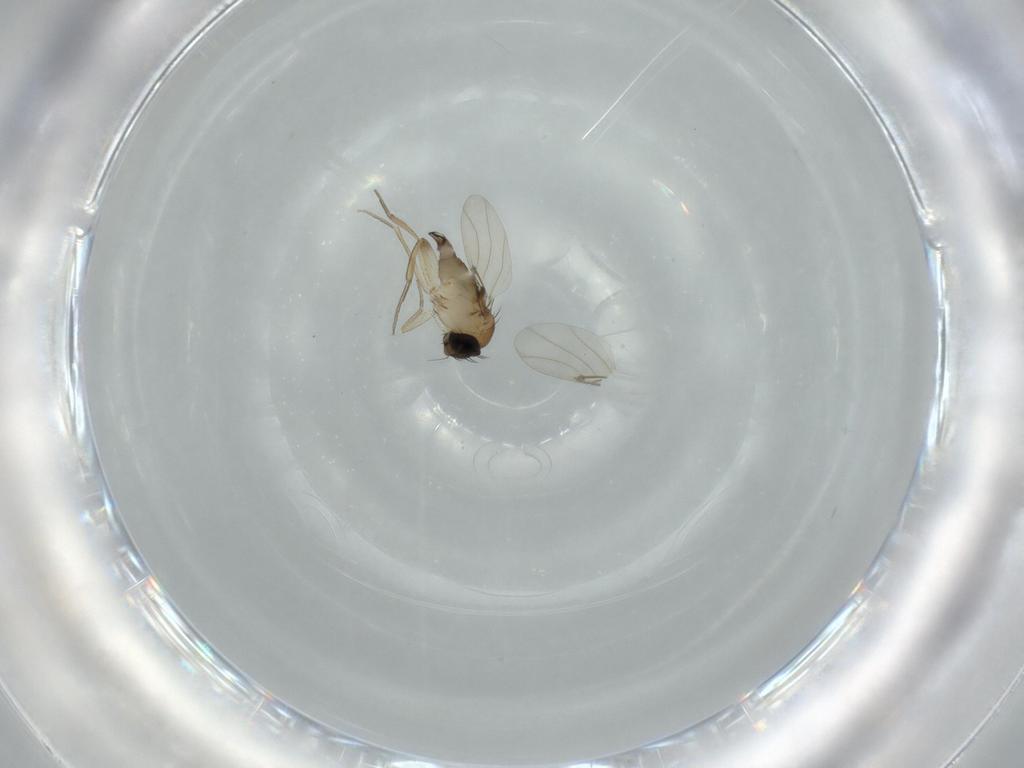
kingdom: Animalia
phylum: Arthropoda
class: Insecta
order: Diptera
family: Phoridae
